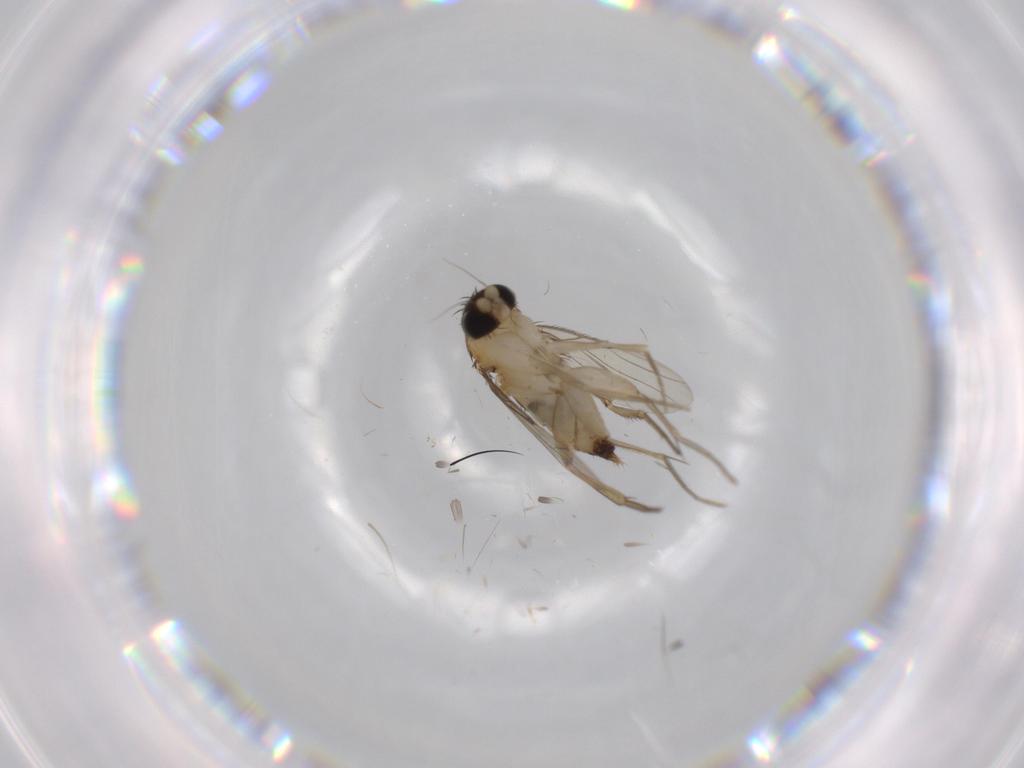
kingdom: Animalia
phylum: Arthropoda
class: Insecta
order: Diptera
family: Phoridae
